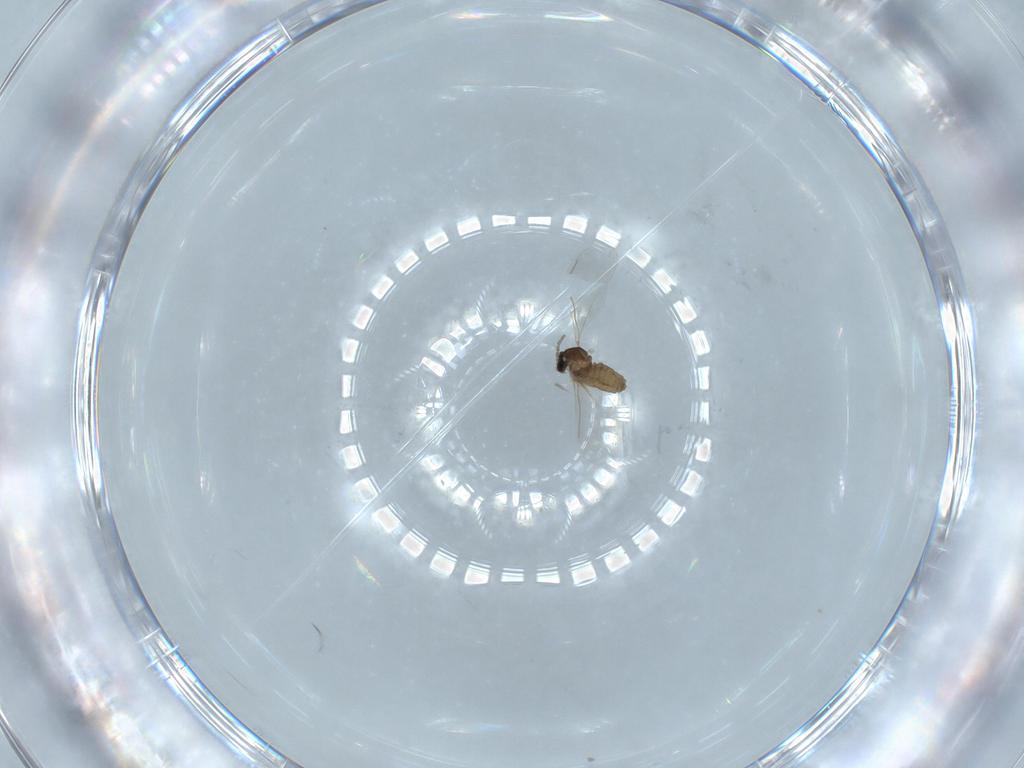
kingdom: Animalia
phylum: Arthropoda
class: Insecta
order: Diptera
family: Cecidomyiidae
